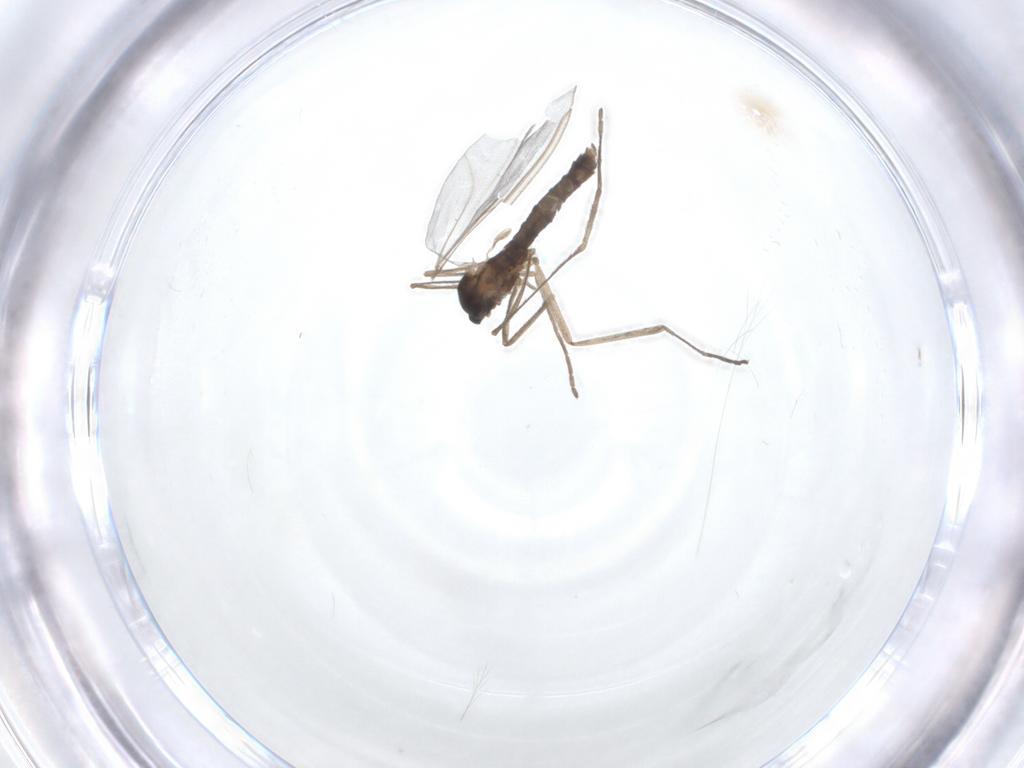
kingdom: Animalia
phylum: Arthropoda
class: Insecta
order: Diptera
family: Cecidomyiidae
